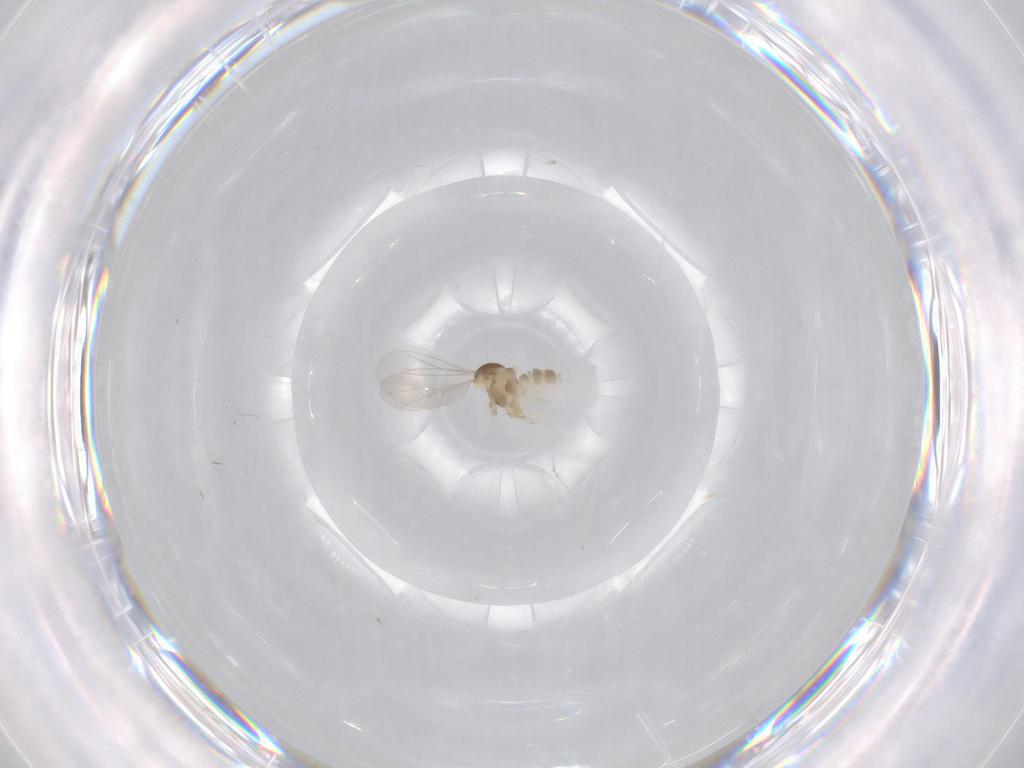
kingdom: Animalia
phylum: Arthropoda
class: Insecta
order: Diptera
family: Cecidomyiidae
